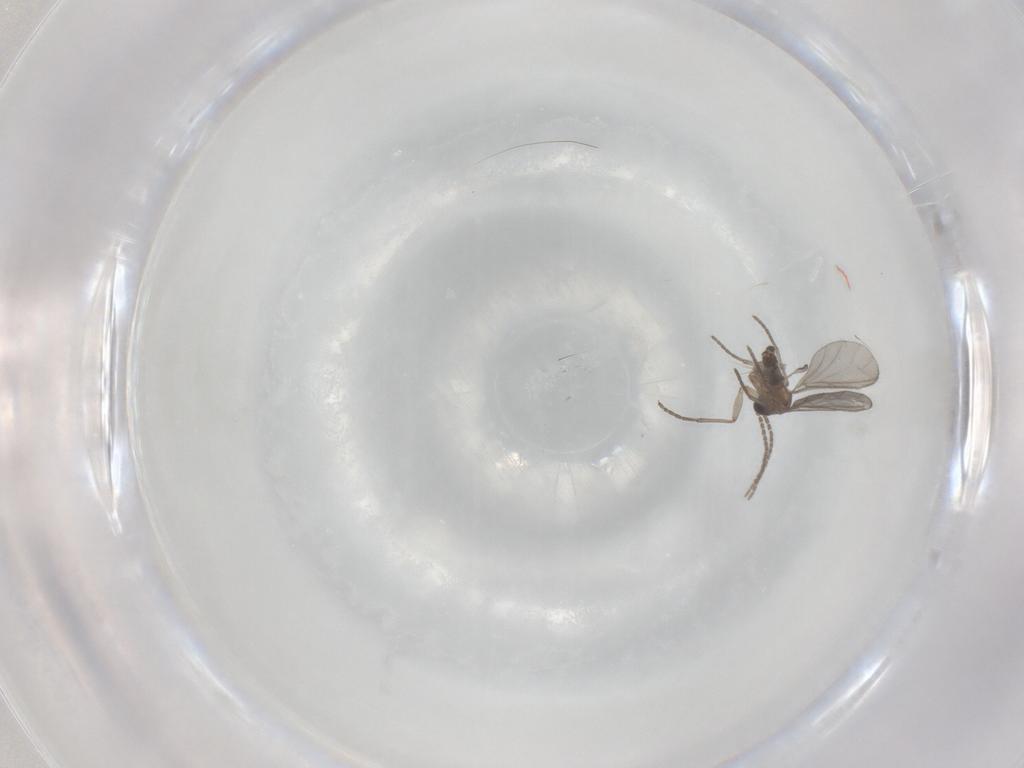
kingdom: Animalia
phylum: Arthropoda
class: Insecta
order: Diptera
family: Sciaridae
